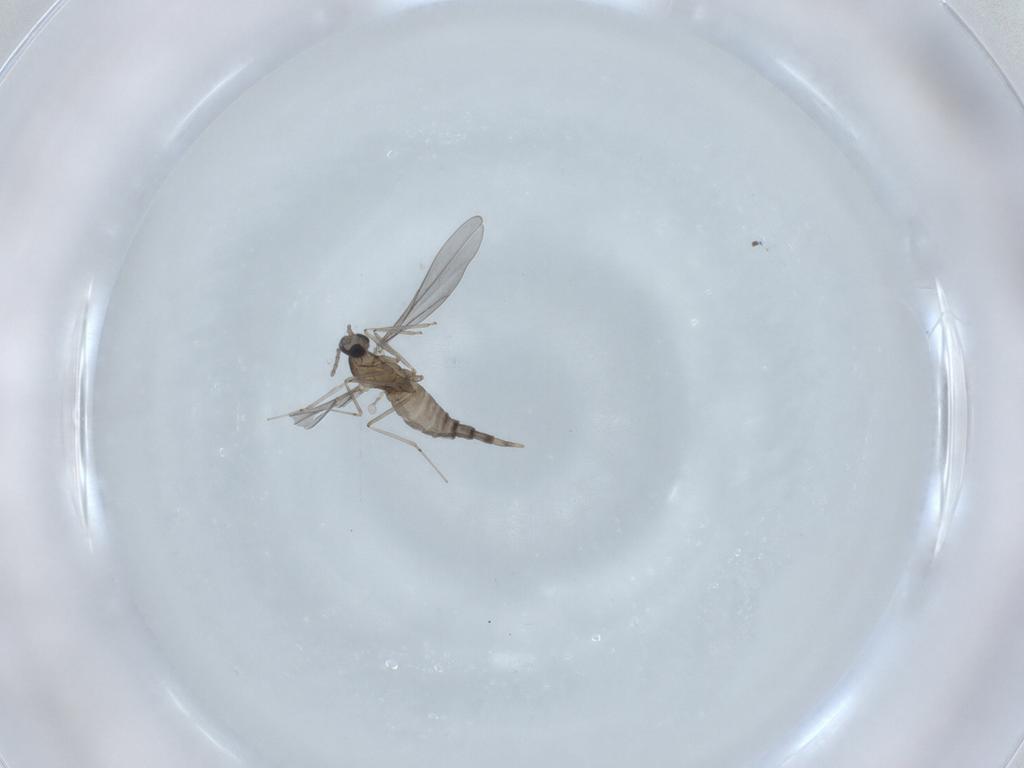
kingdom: Animalia
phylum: Arthropoda
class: Insecta
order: Diptera
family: Cecidomyiidae
